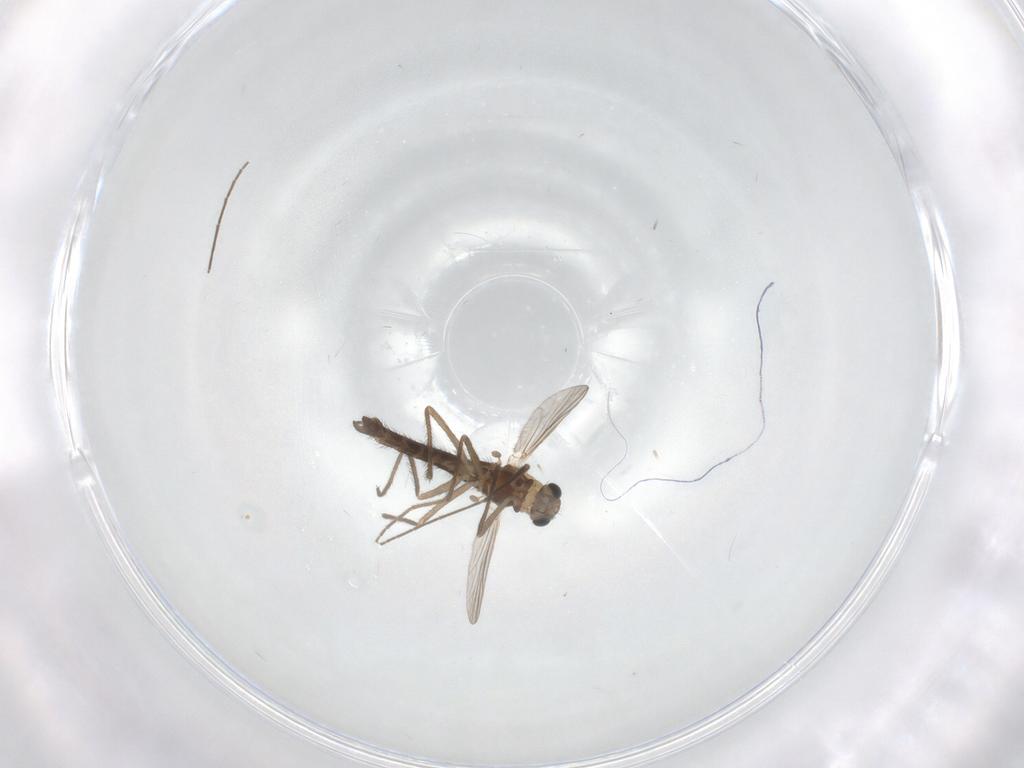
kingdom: Animalia
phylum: Arthropoda
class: Insecta
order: Diptera
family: Chironomidae
